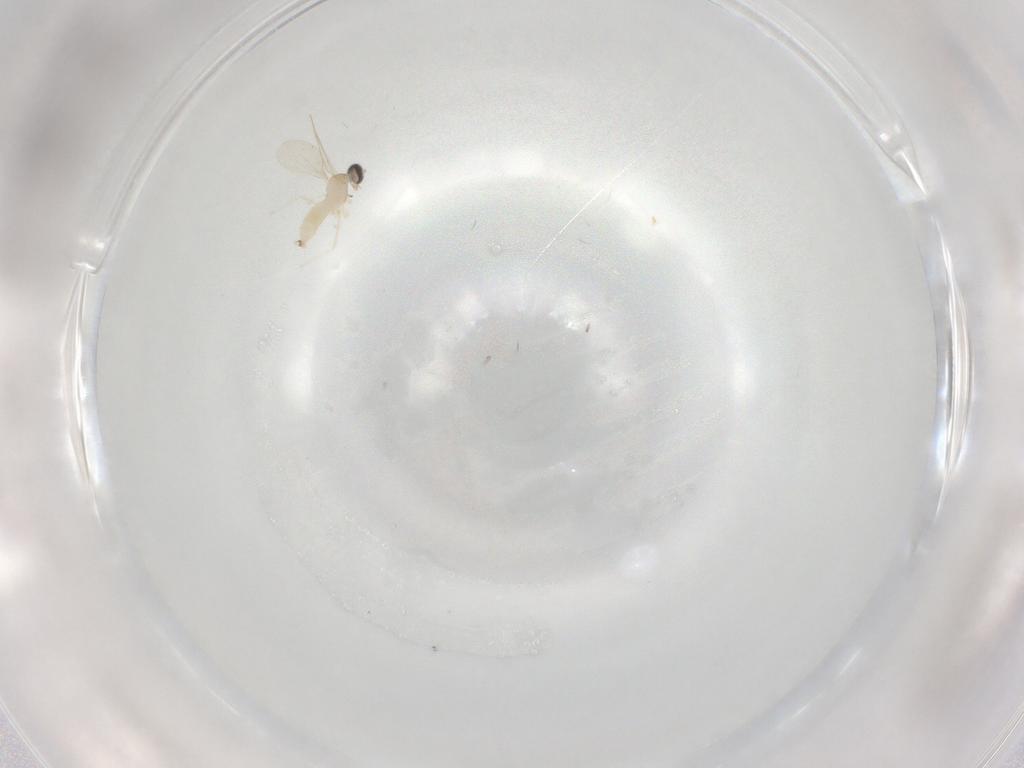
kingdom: Animalia
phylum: Arthropoda
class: Insecta
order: Diptera
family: Cecidomyiidae
